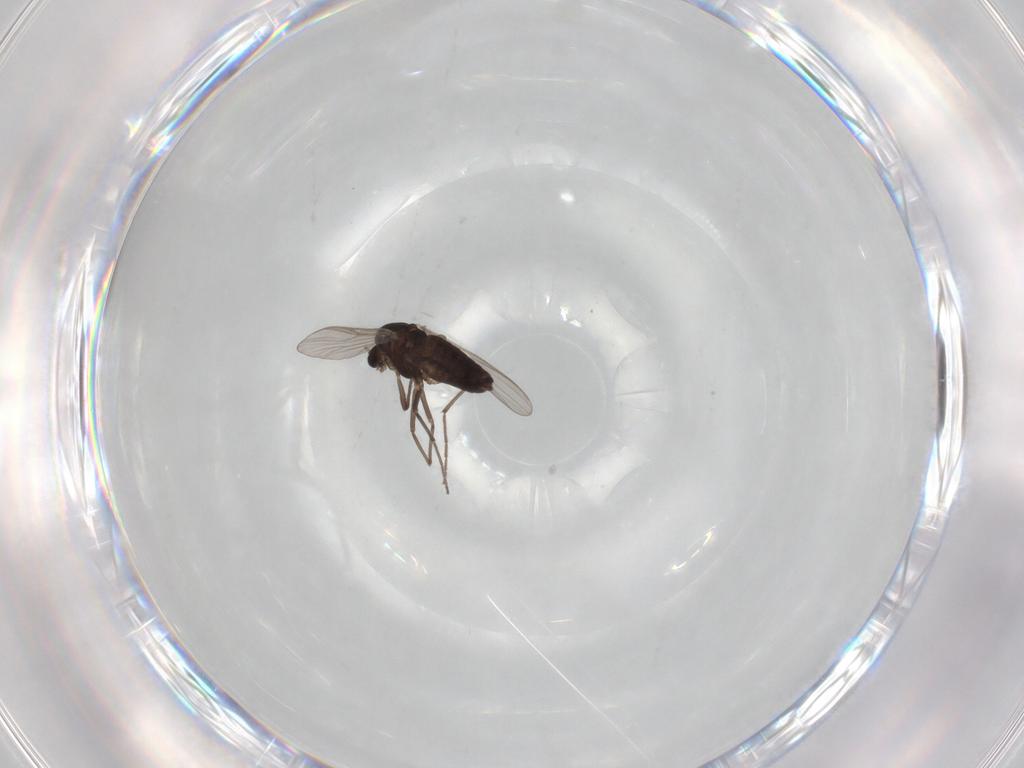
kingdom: Animalia
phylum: Arthropoda
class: Insecta
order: Diptera
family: Chironomidae
